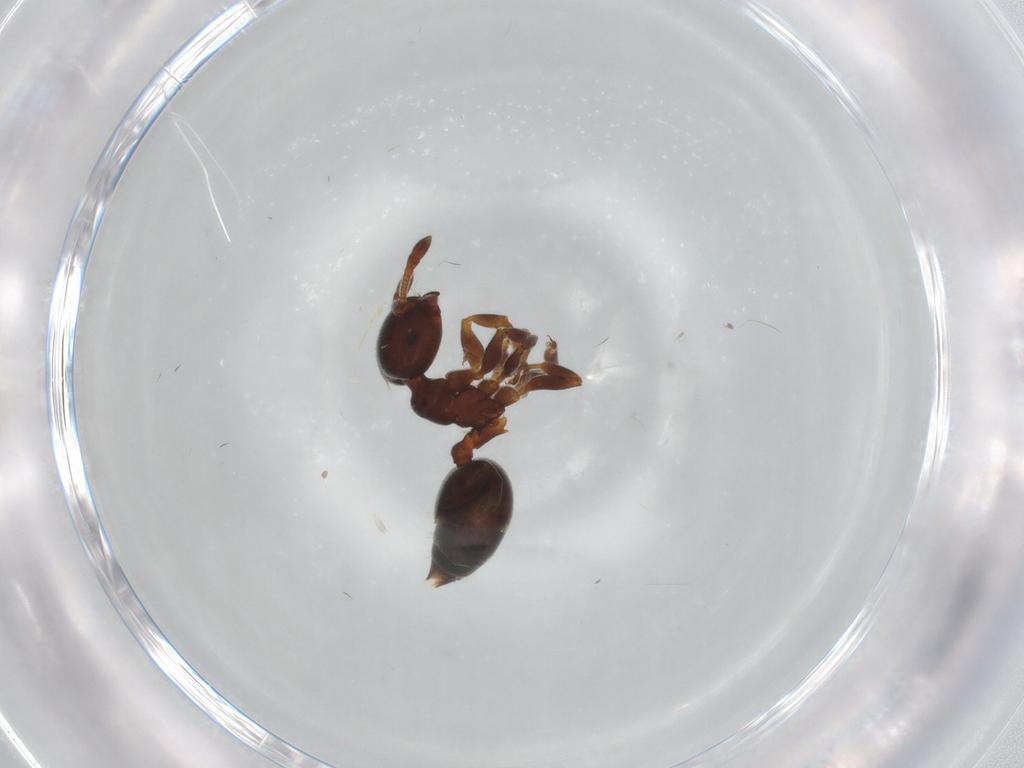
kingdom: Animalia
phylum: Arthropoda
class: Insecta
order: Hymenoptera
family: Formicidae
